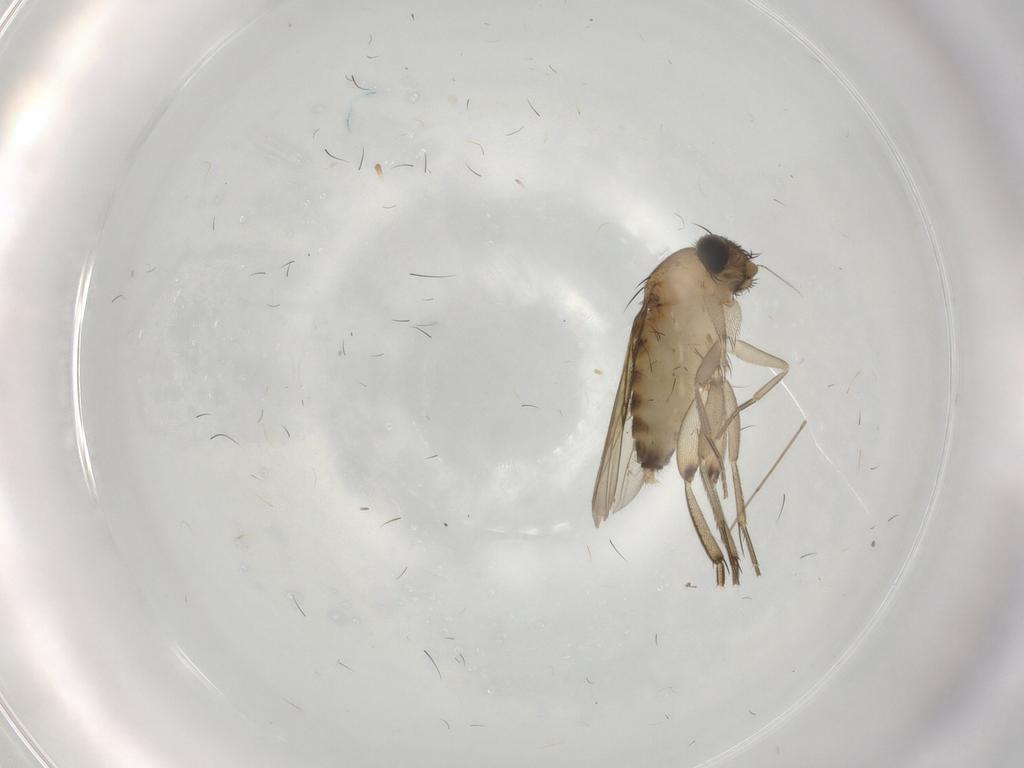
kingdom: Animalia
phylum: Arthropoda
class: Insecta
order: Diptera
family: Phoridae
